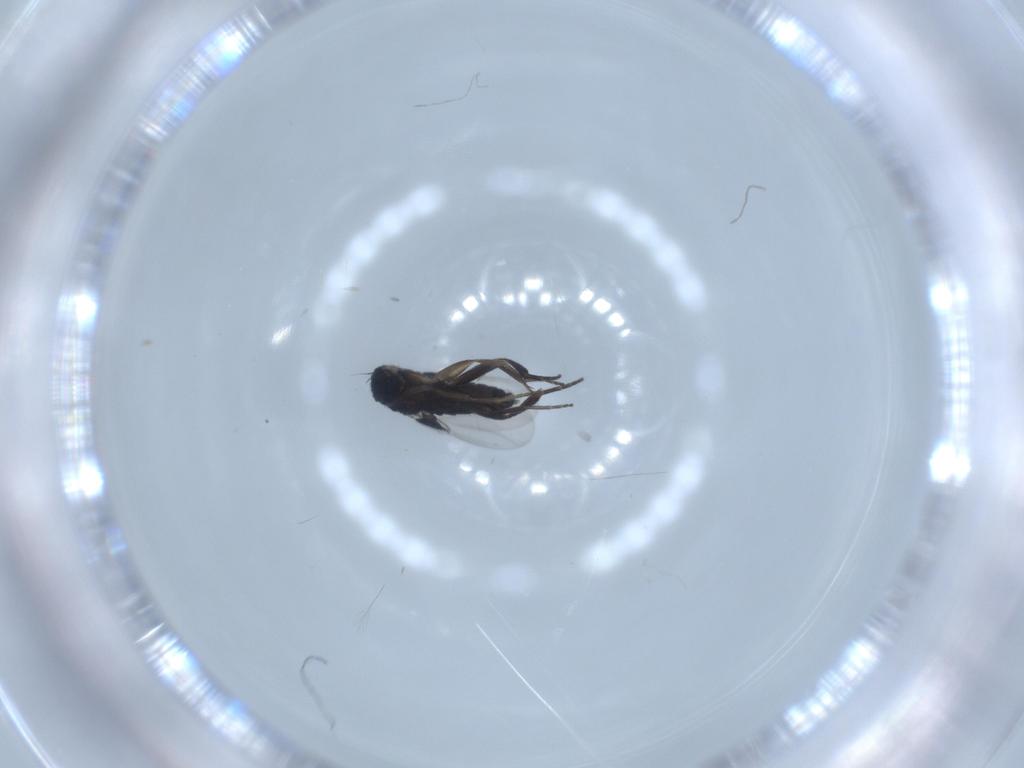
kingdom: Animalia
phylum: Arthropoda
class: Insecta
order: Diptera
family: Phoridae
